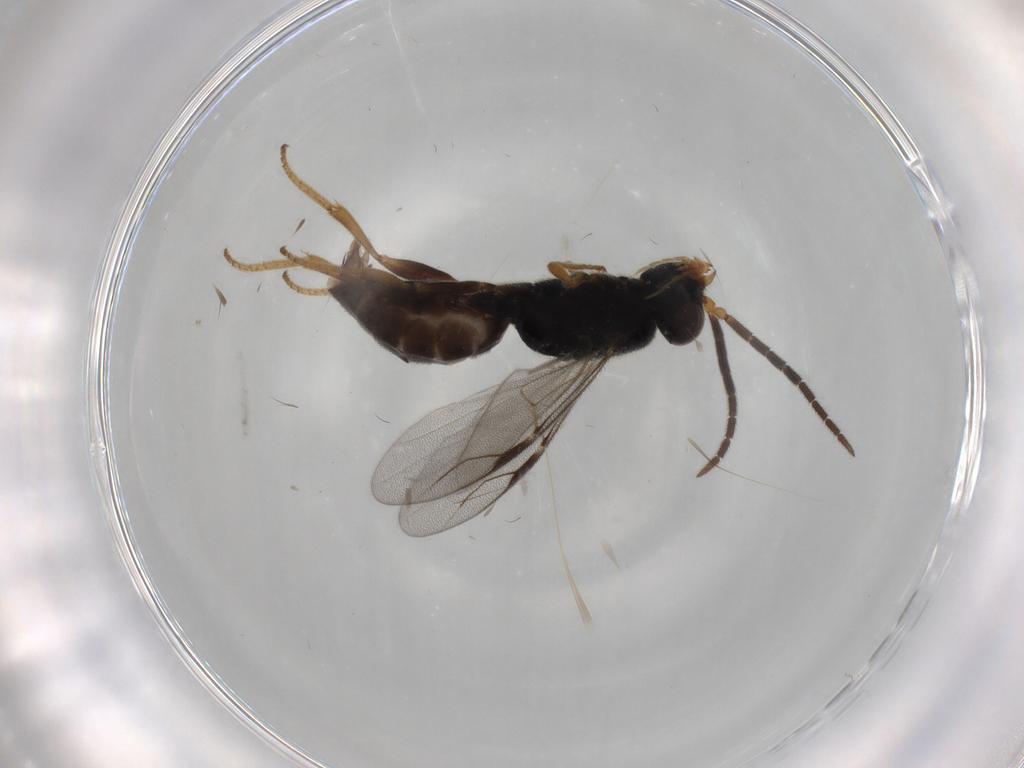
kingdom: Animalia
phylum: Arthropoda
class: Insecta
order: Hymenoptera
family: Dryinidae
